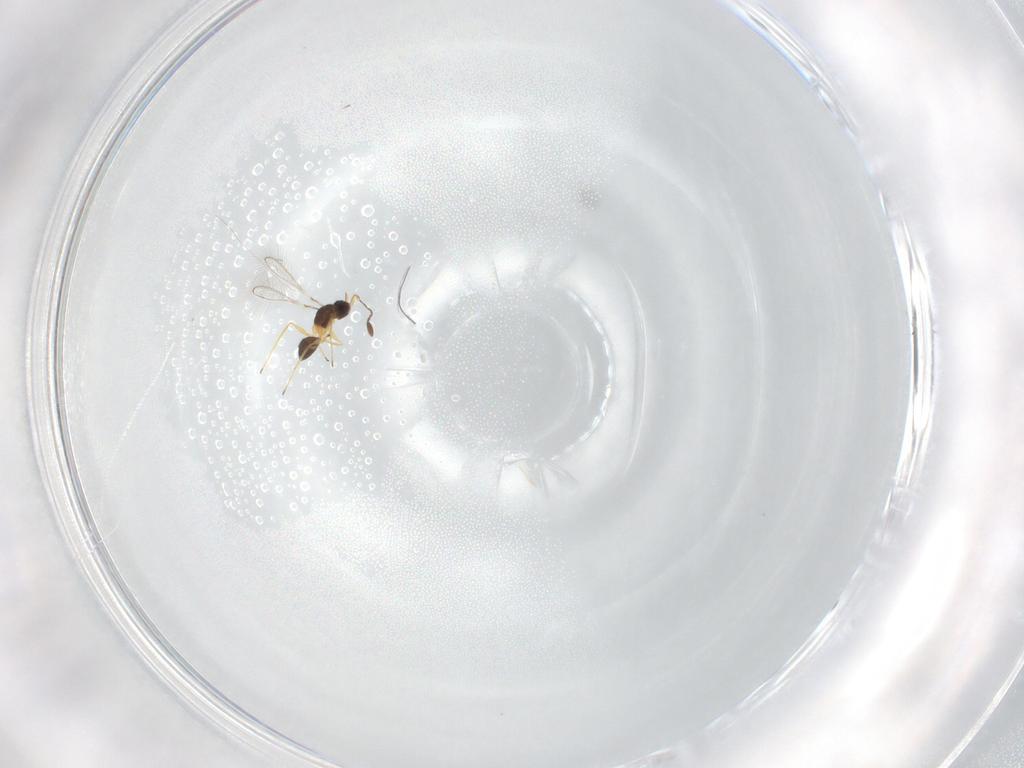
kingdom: Animalia
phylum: Arthropoda
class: Insecta
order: Hymenoptera
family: Mymaridae
